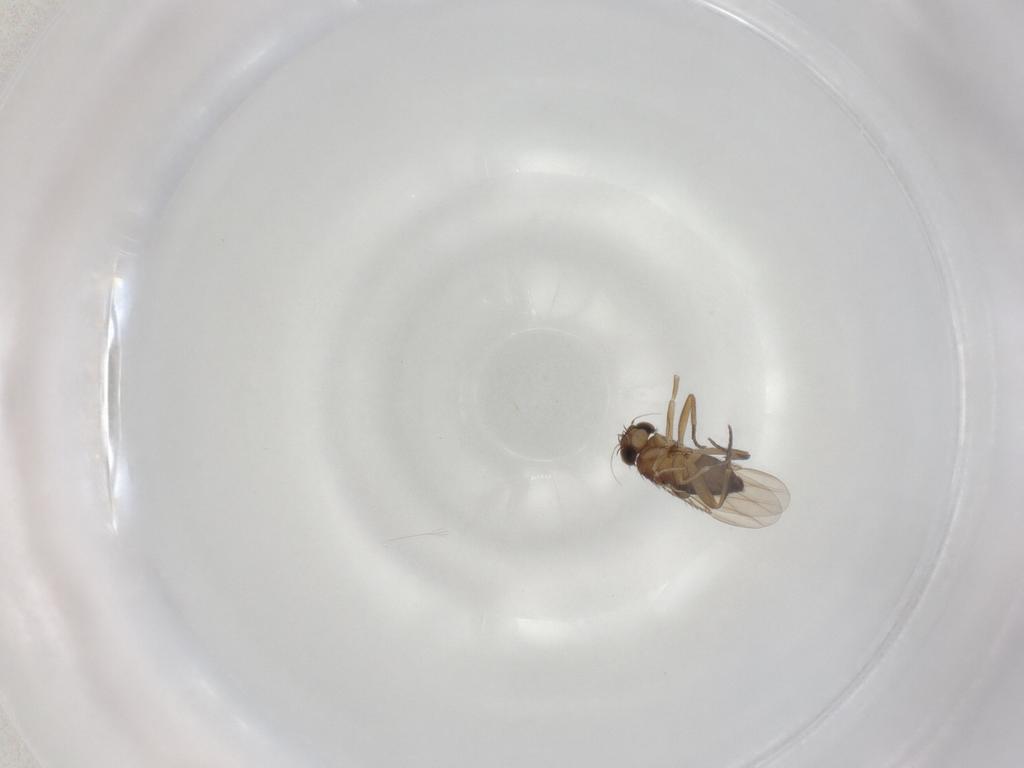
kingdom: Animalia
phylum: Arthropoda
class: Insecta
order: Diptera
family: Phoridae
